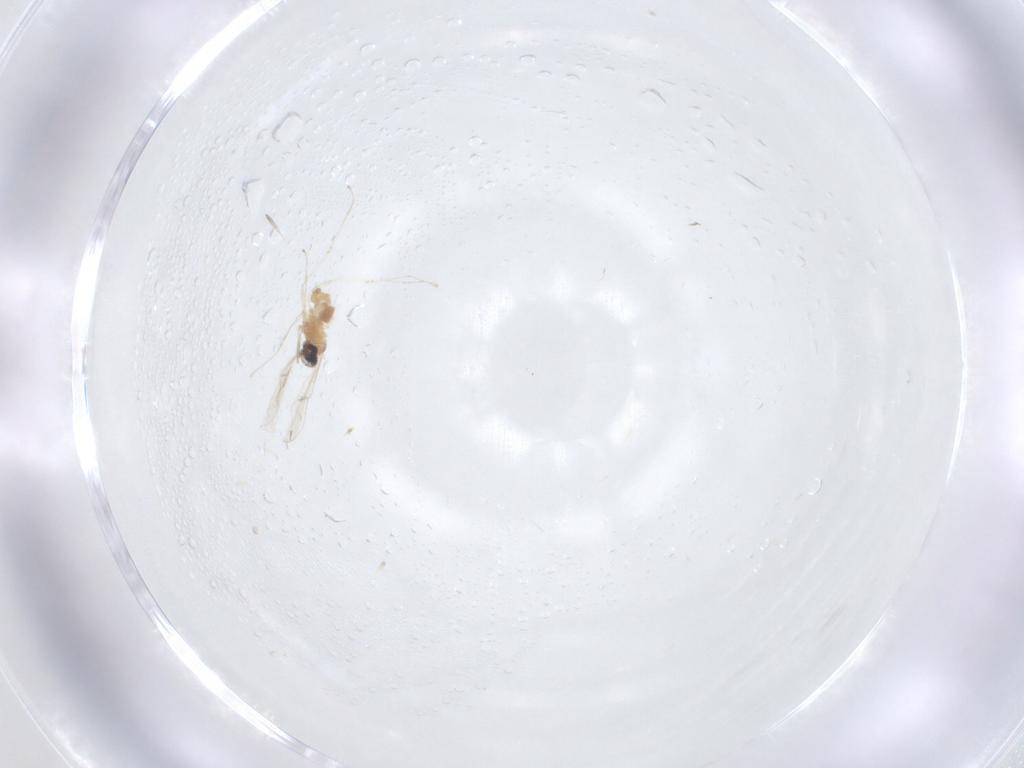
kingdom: Animalia
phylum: Arthropoda
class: Insecta
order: Diptera
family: Cecidomyiidae
